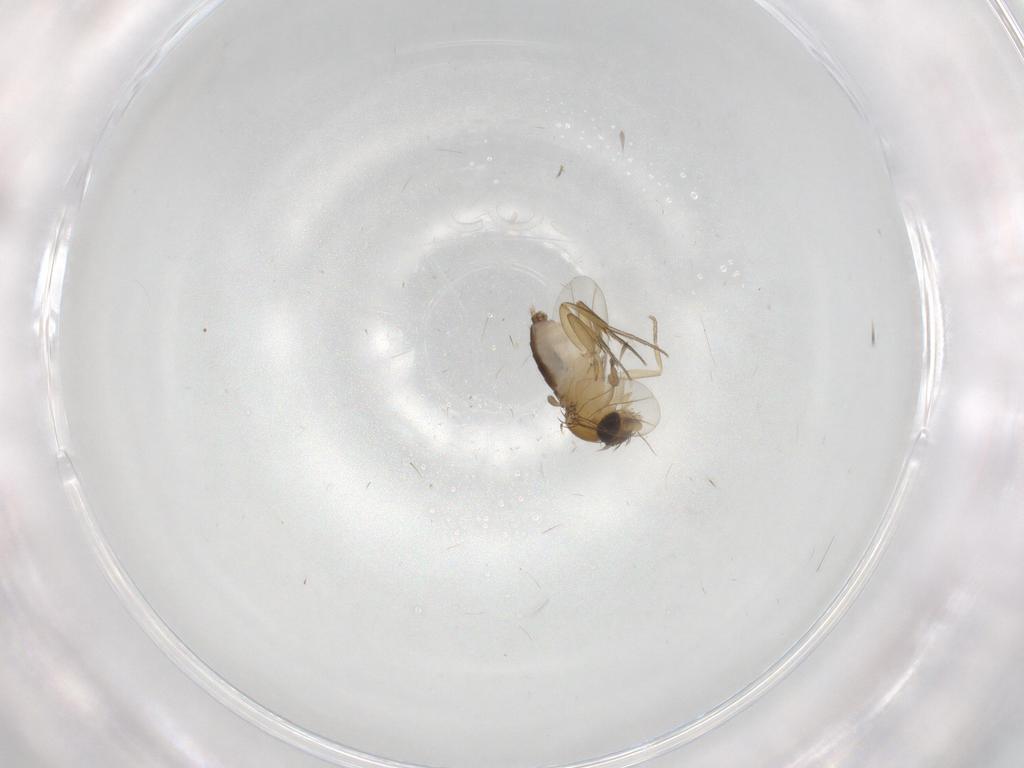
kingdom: Animalia
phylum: Arthropoda
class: Insecta
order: Diptera
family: Phoridae
